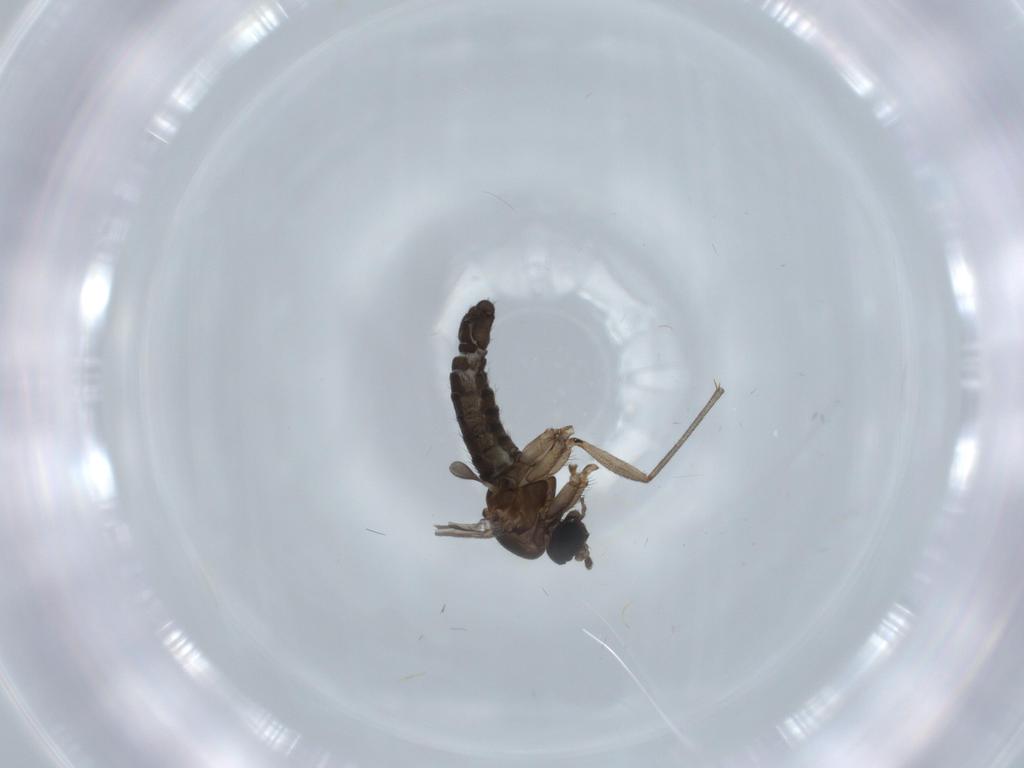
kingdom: Animalia
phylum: Arthropoda
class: Insecta
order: Diptera
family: Sciaridae
